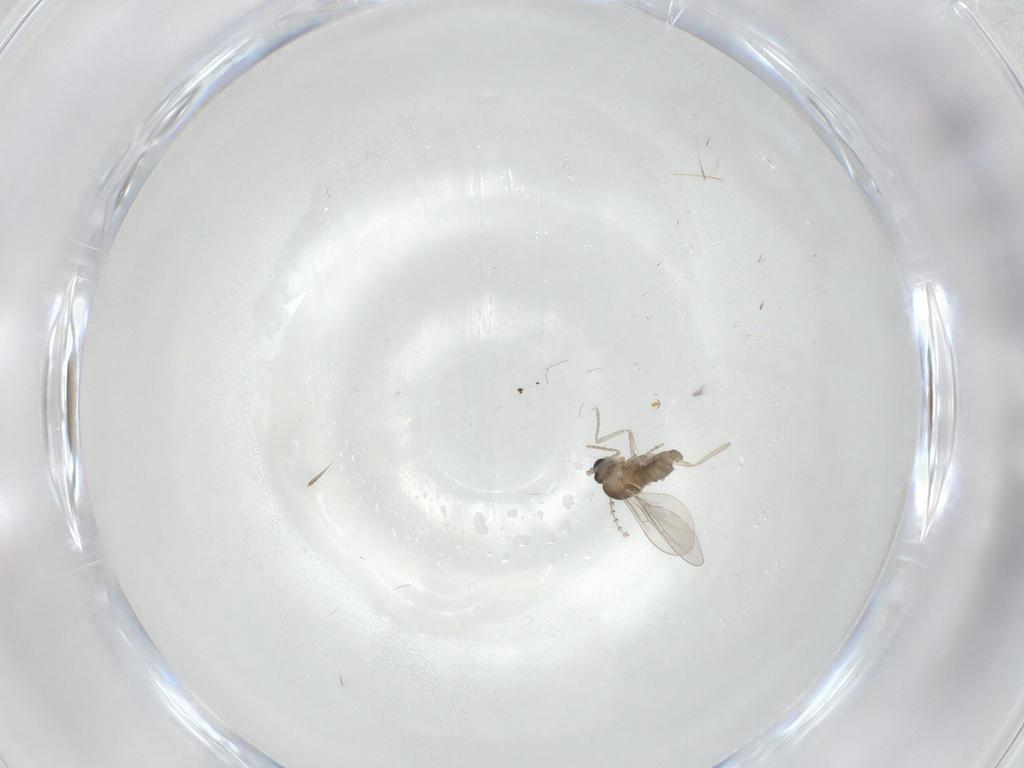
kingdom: Animalia
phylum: Arthropoda
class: Insecta
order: Diptera
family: Cecidomyiidae
